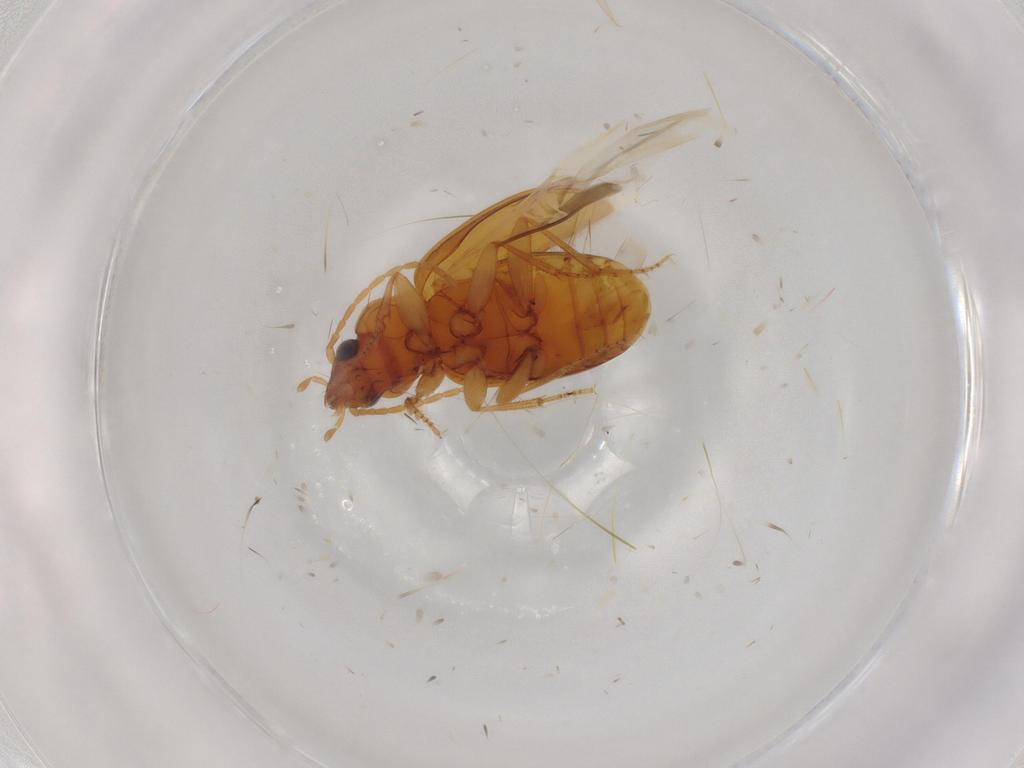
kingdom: Animalia
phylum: Arthropoda
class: Insecta
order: Coleoptera
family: Carabidae
